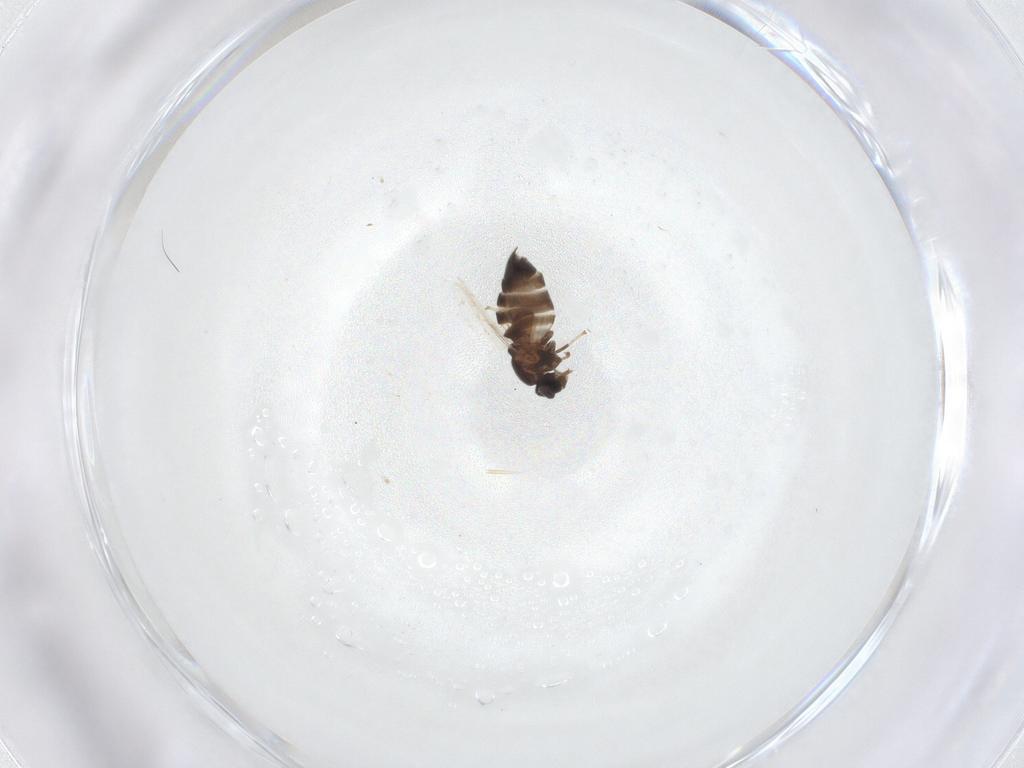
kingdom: Animalia
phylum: Arthropoda
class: Insecta
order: Diptera
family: Scatopsidae
